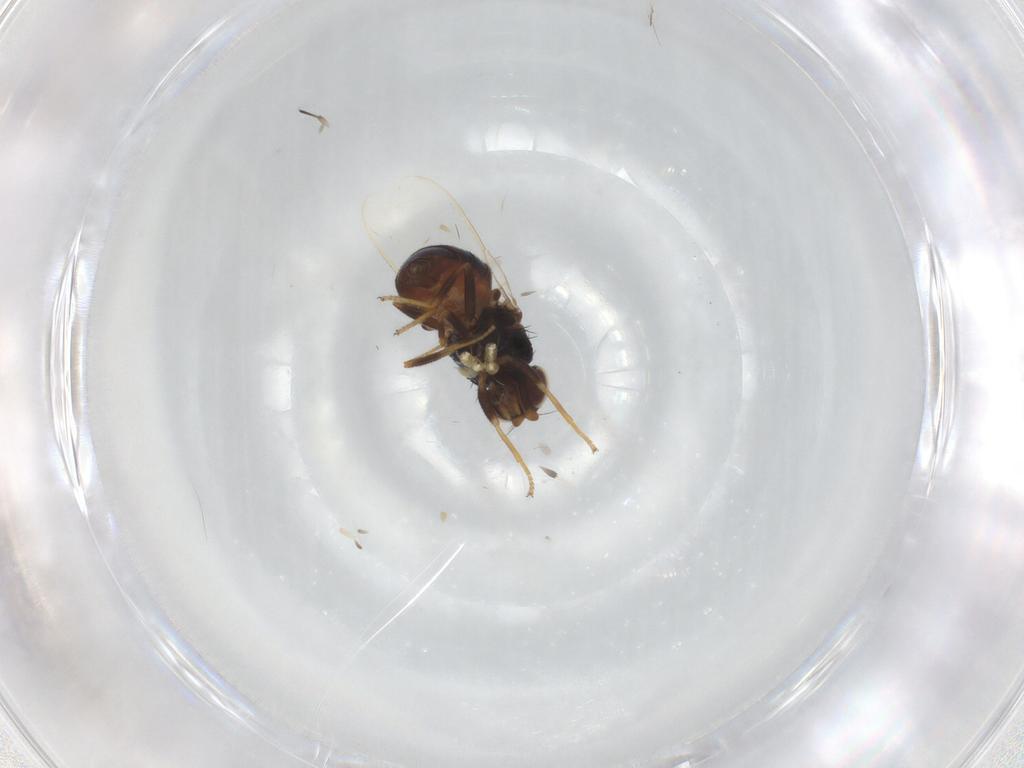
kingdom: Animalia
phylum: Arthropoda
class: Insecta
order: Diptera
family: Chloropidae
